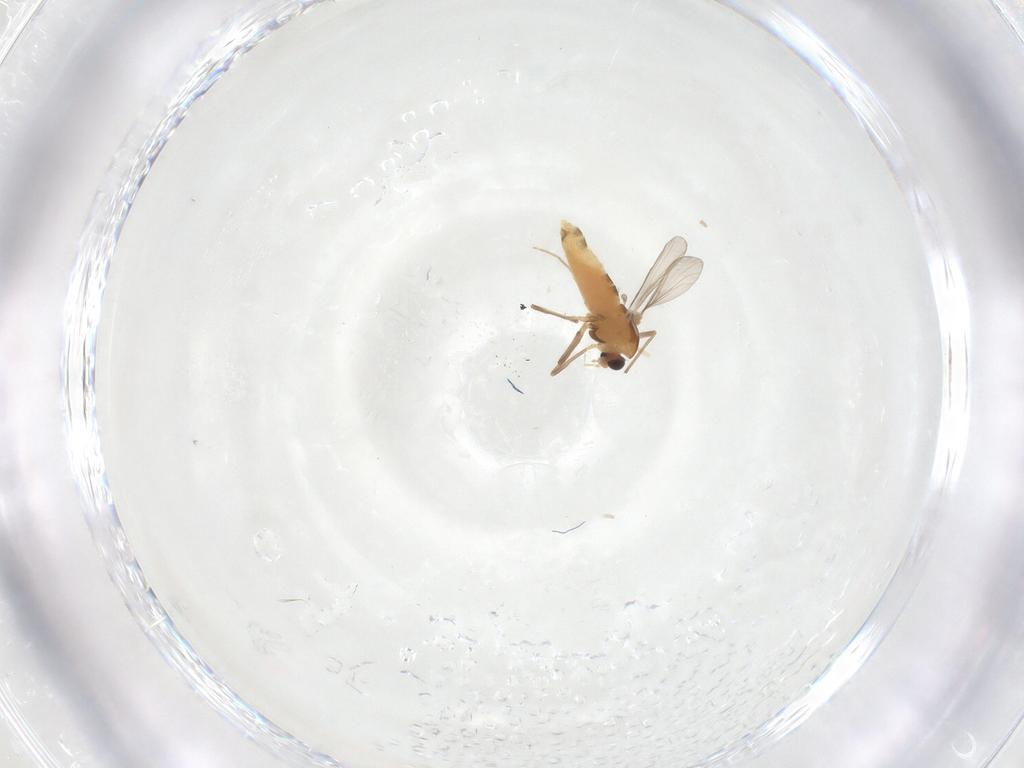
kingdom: Animalia
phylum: Arthropoda
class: Insecta
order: Diptera
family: Chironomidae
